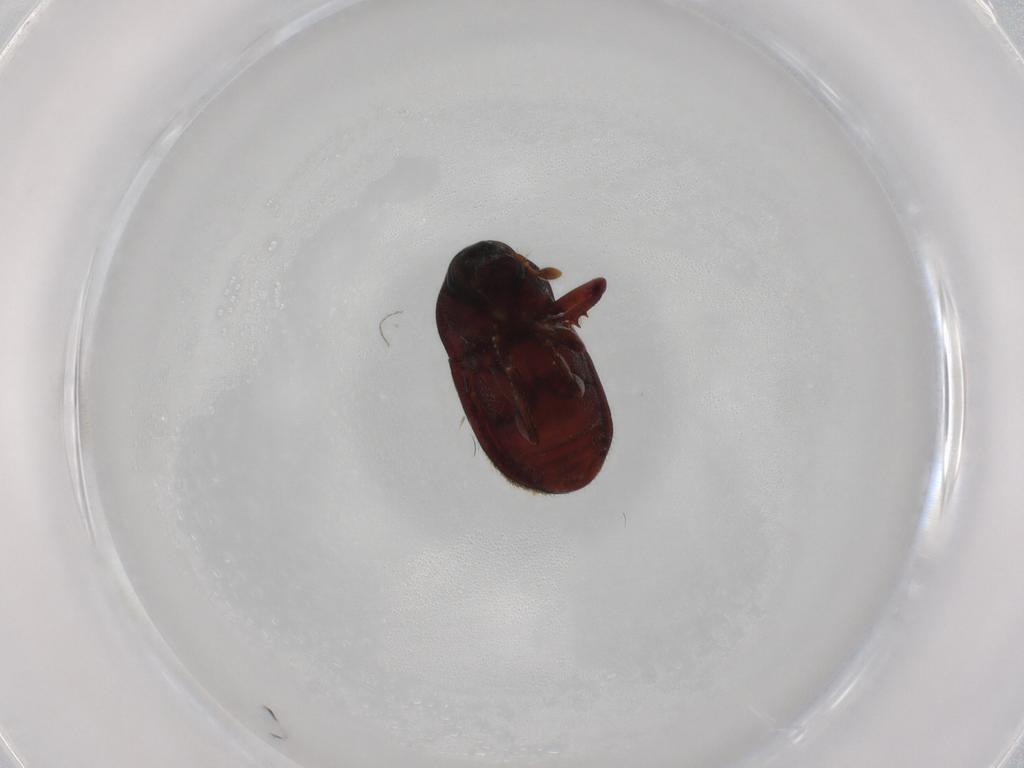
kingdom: Animalia
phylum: Arthropoda
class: Insecta
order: Coleoptera
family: Curculionidae
